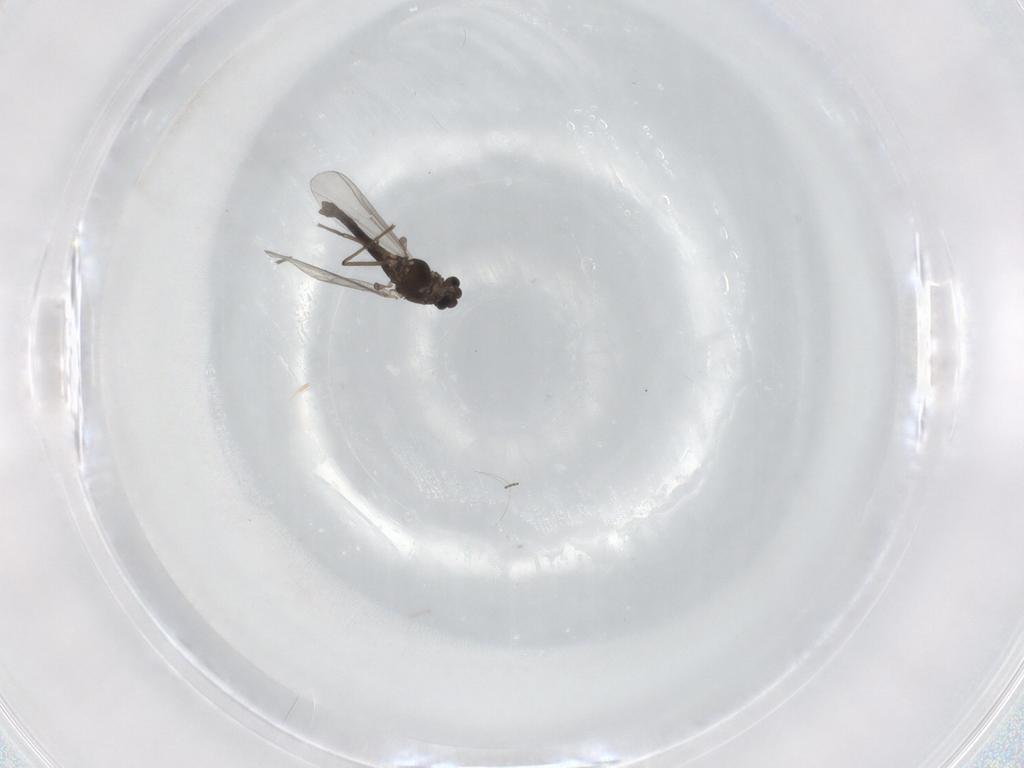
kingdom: Animalia
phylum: Arthropoda
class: Insecta
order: Diptera
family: Chironomidae
